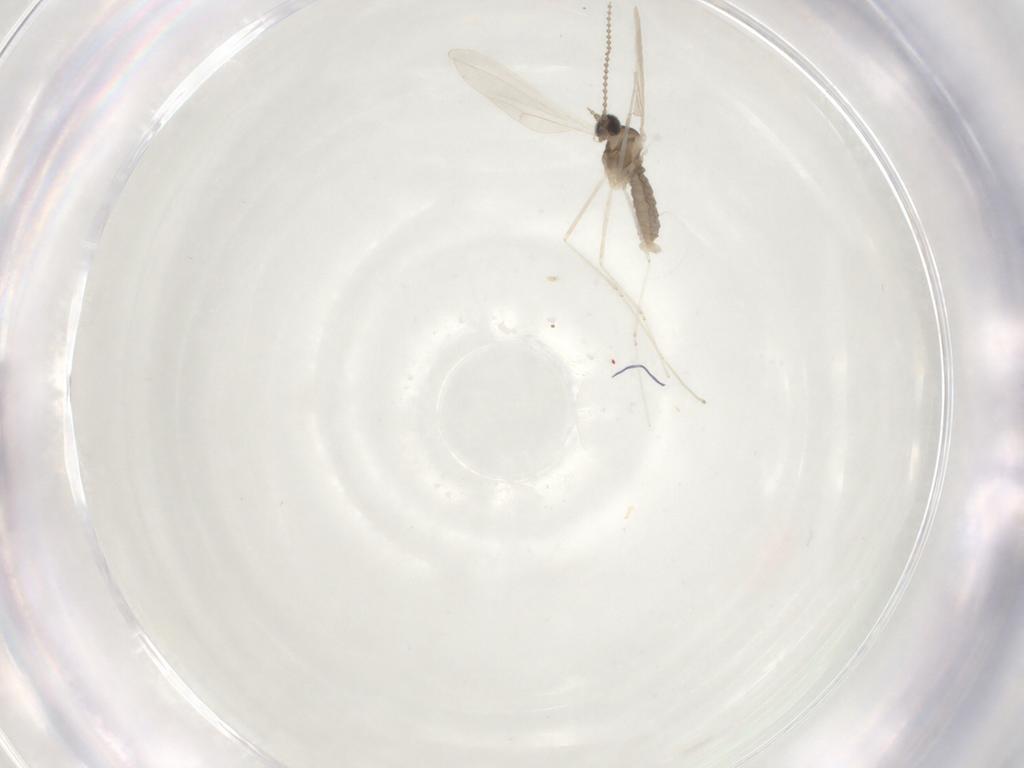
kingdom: Animalia
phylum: Arthropoda
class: Insecta
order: Diptera
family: Cecidomyiidae
